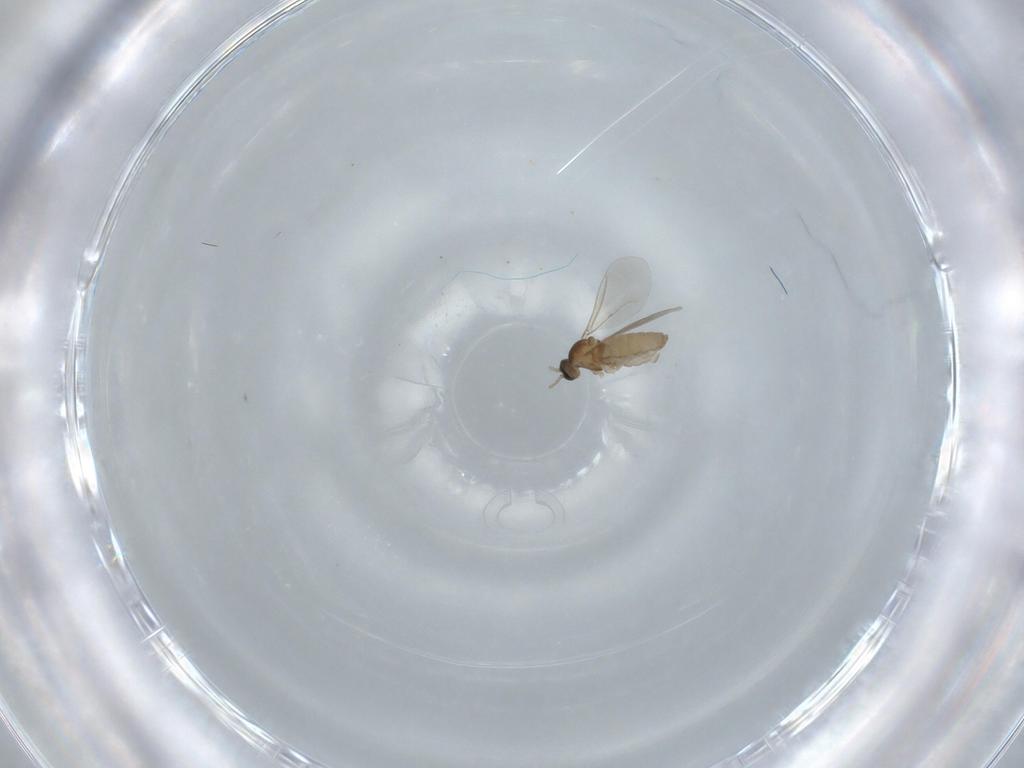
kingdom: Animalia
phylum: Arthropoda
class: Insecta
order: Diptera
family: Cecidomyiidae
